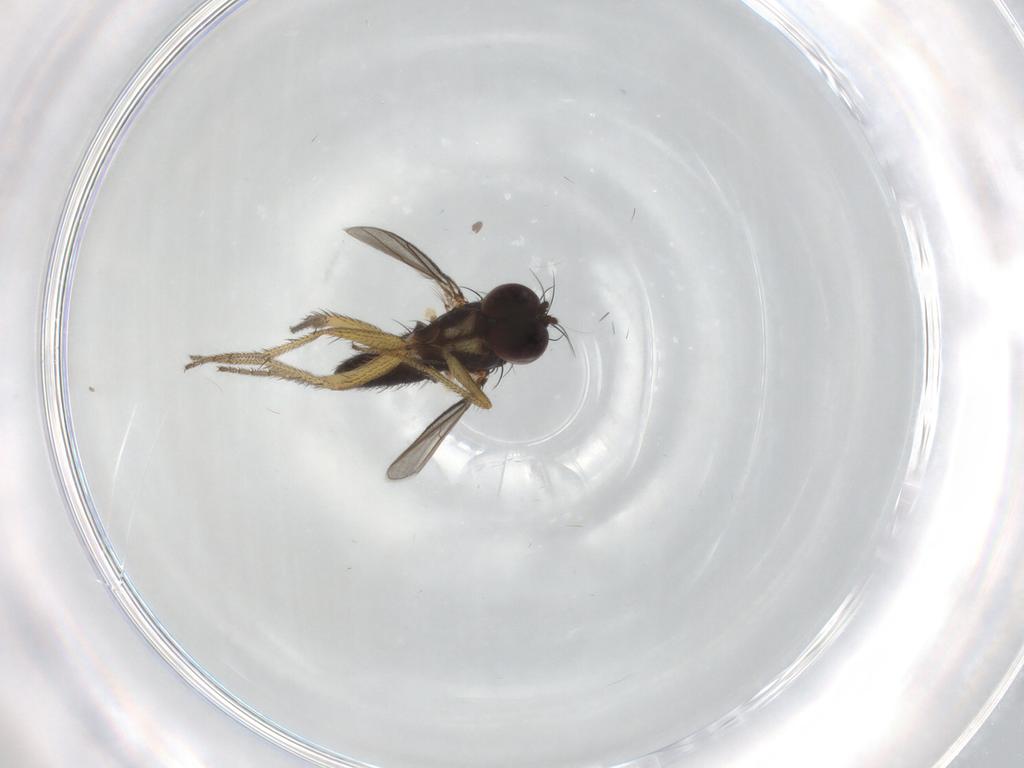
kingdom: Animalia
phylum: Arthropoda
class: Insecta
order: Diptera
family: Dolichopodidae
